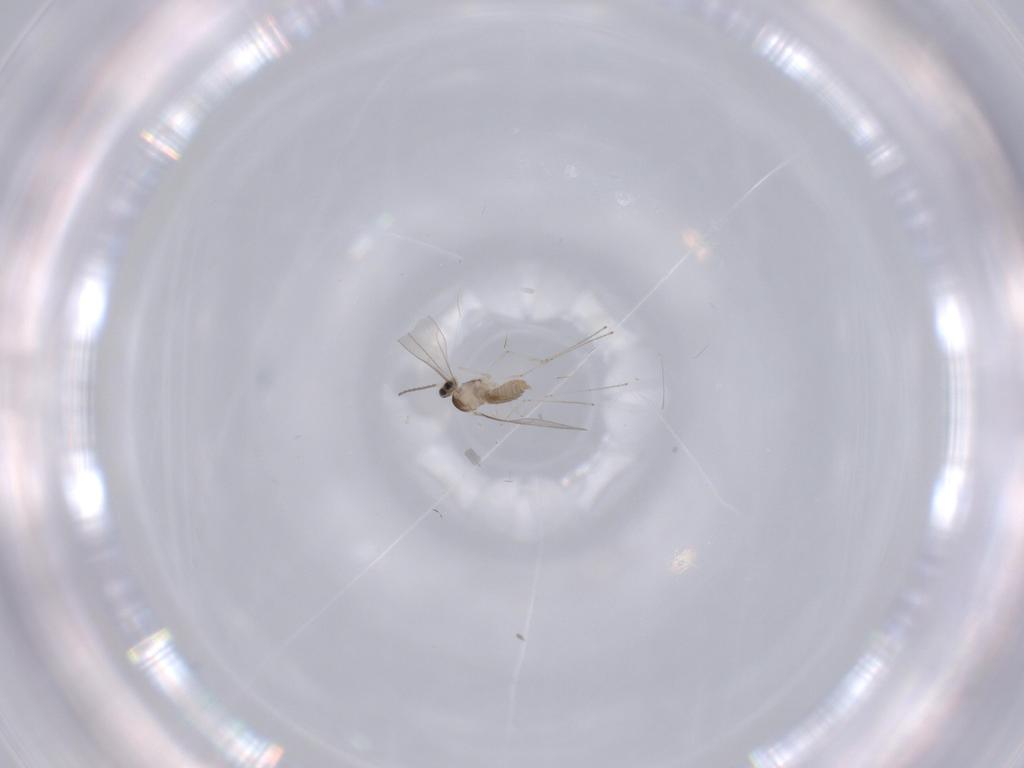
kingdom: Animalia
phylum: Arthropoda
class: Insecta
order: Diptera
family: Cecidomyiidae
